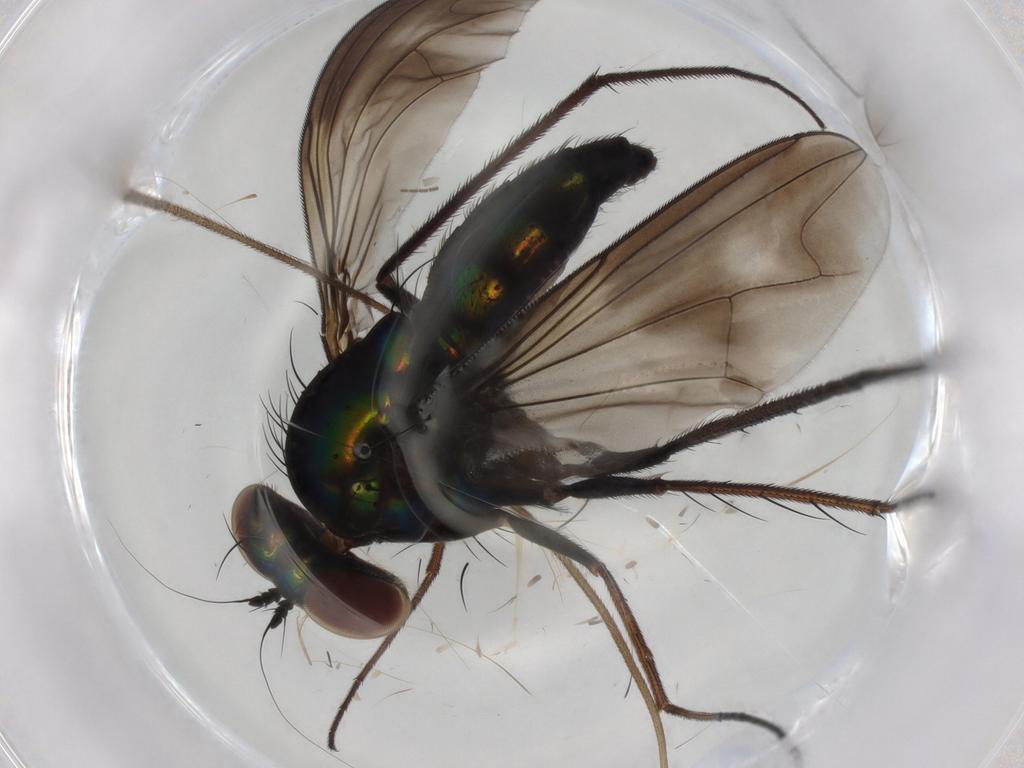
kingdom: Animalia
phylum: Arthropoda
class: Insecta
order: Diptera
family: Dolichopodidae
